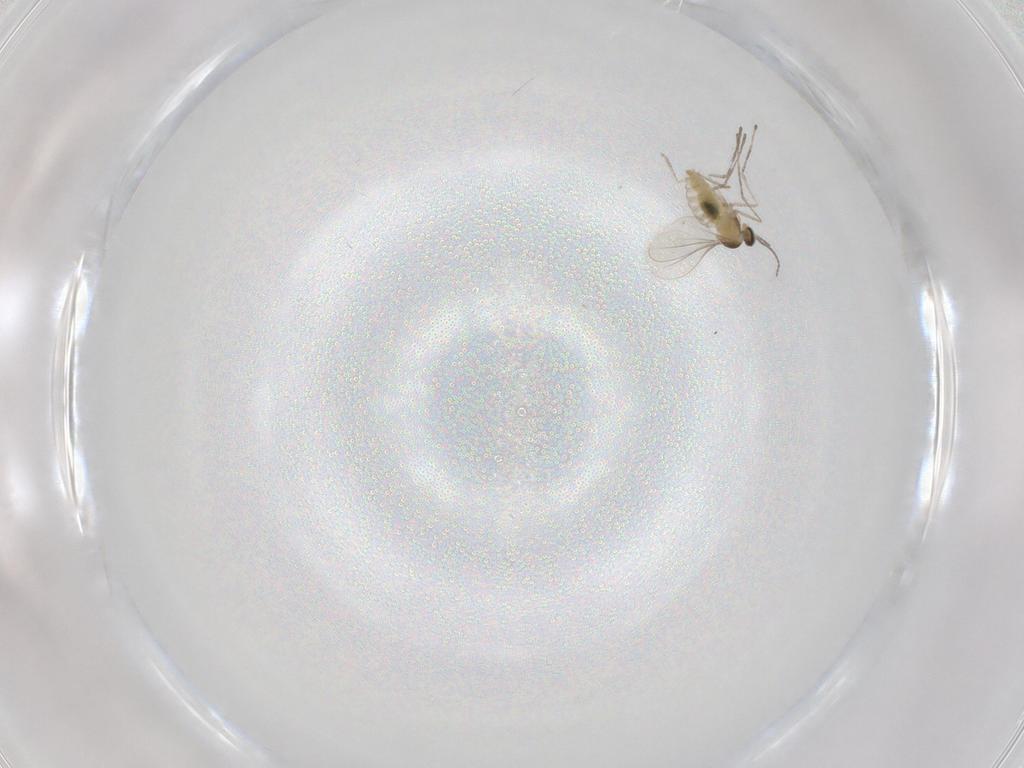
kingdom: Animalia
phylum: Arthropoda
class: Insecta
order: Diptera
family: Cecidomyiidae
